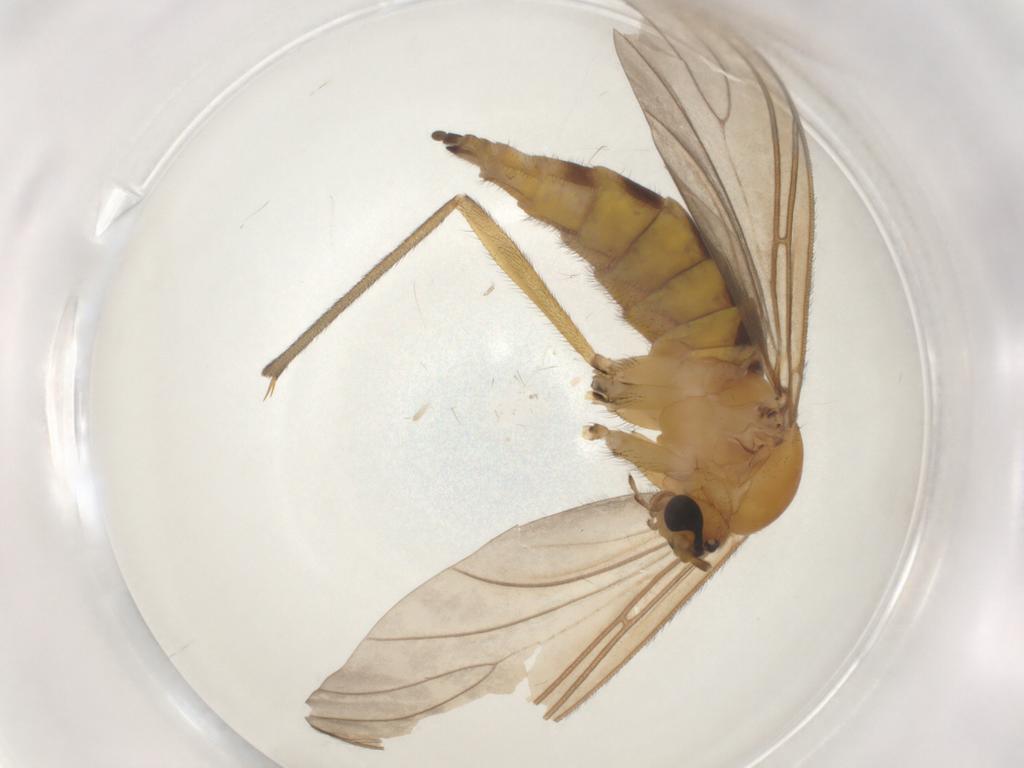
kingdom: Animalia
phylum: Arthropoda
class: Insecta
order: Diptera
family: Sciaridae
